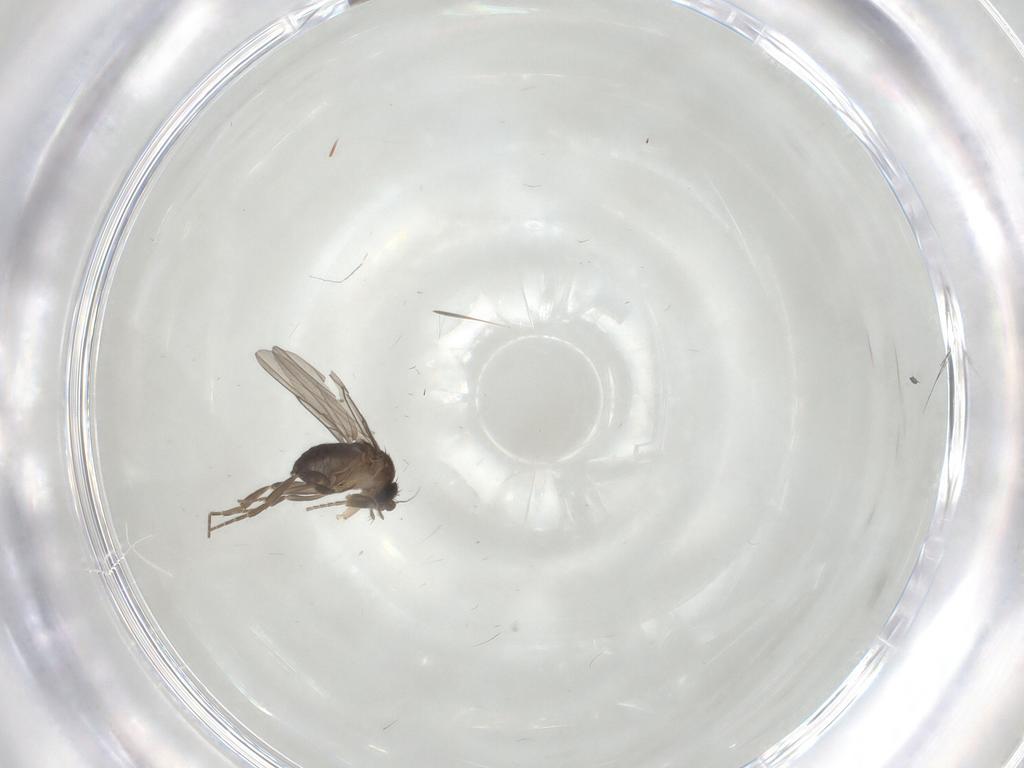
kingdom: Animalia
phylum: Arthropoda
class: Insecta
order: Diptera
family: Phoridae
